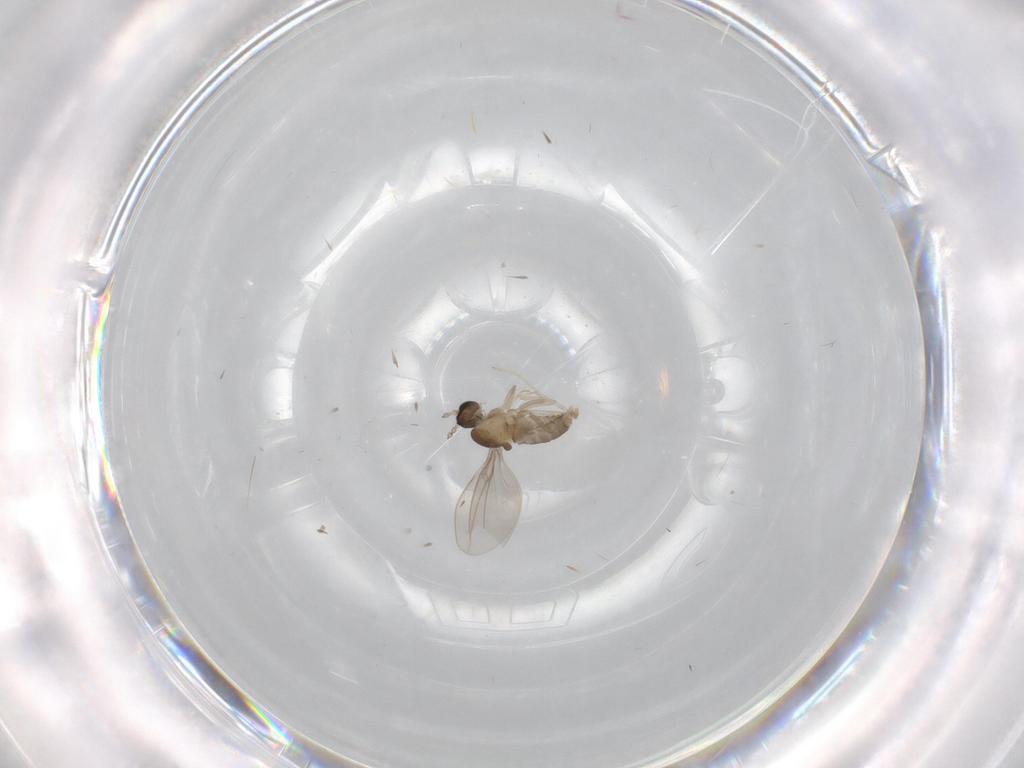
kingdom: Animalia
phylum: Arthropoda
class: Insecta
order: Diptera
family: Cecidomyiidae
